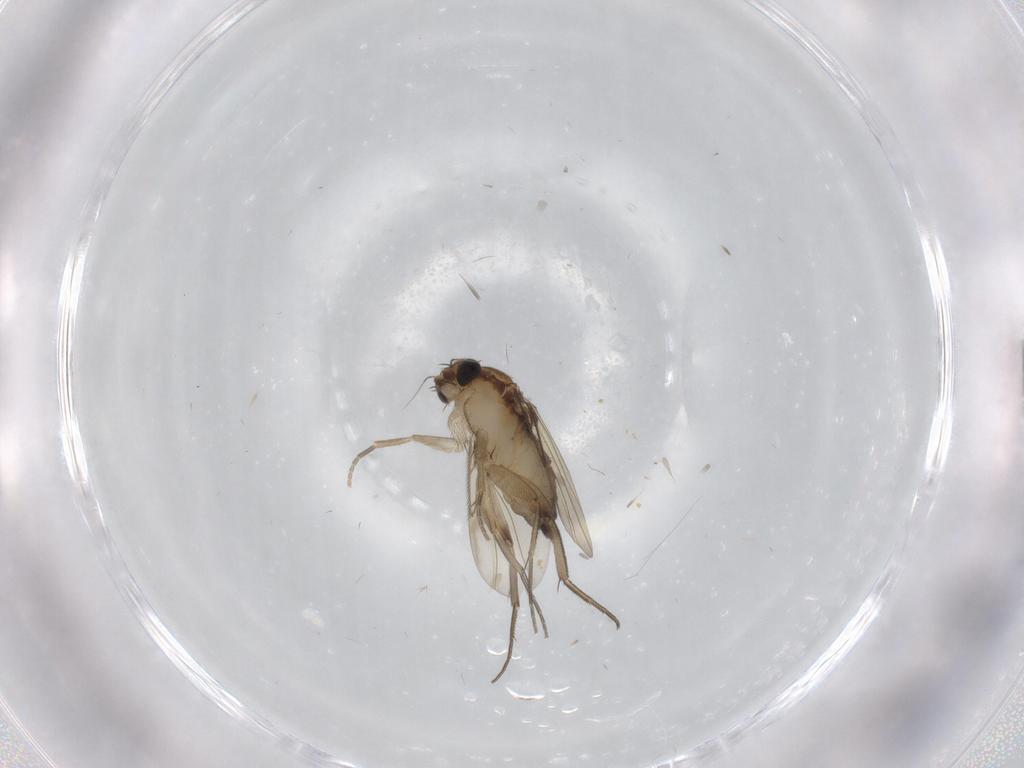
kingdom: Animalia
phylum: Arthropoda
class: Insecta
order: Diptera
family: Phoridae
